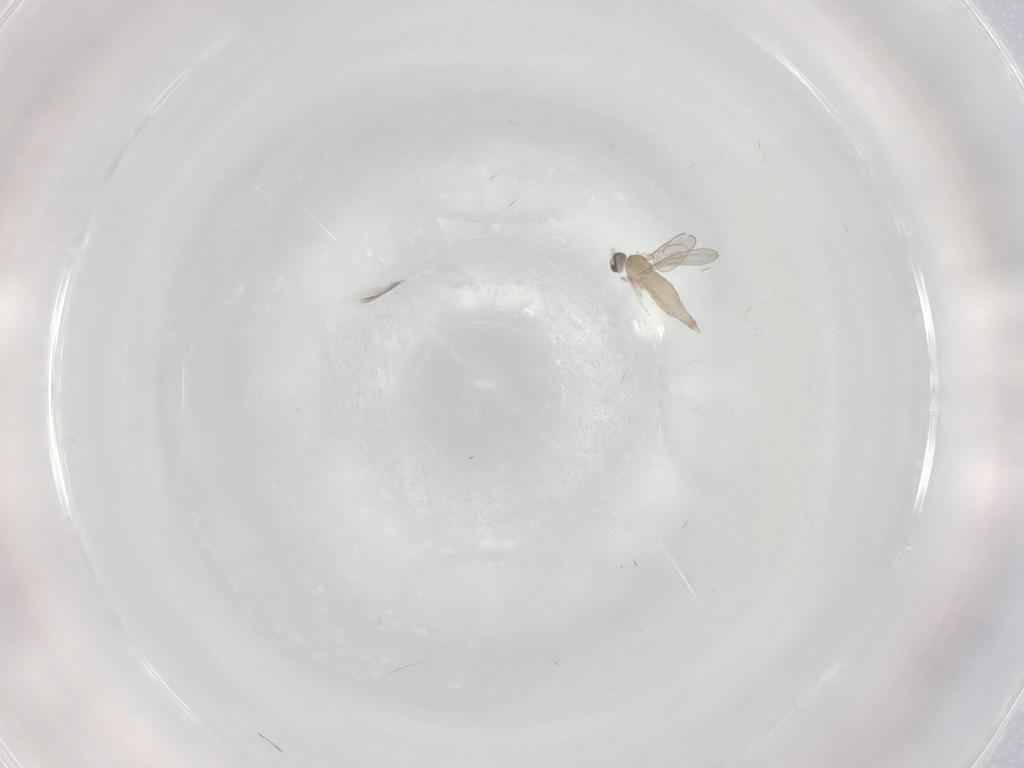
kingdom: Animalia
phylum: Arthropoda
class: Insecta
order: Diptera
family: Cecidomyiidae
